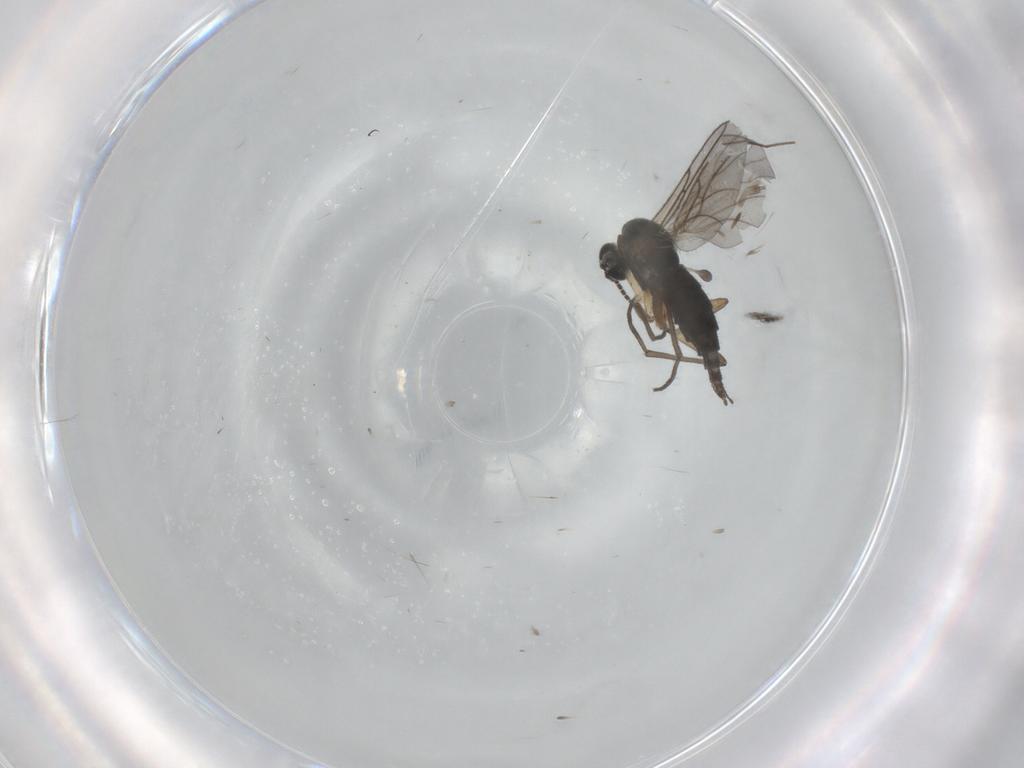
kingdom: Animalia
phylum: Arthropoda
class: Insecta
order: Diptera
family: Sciaridae
